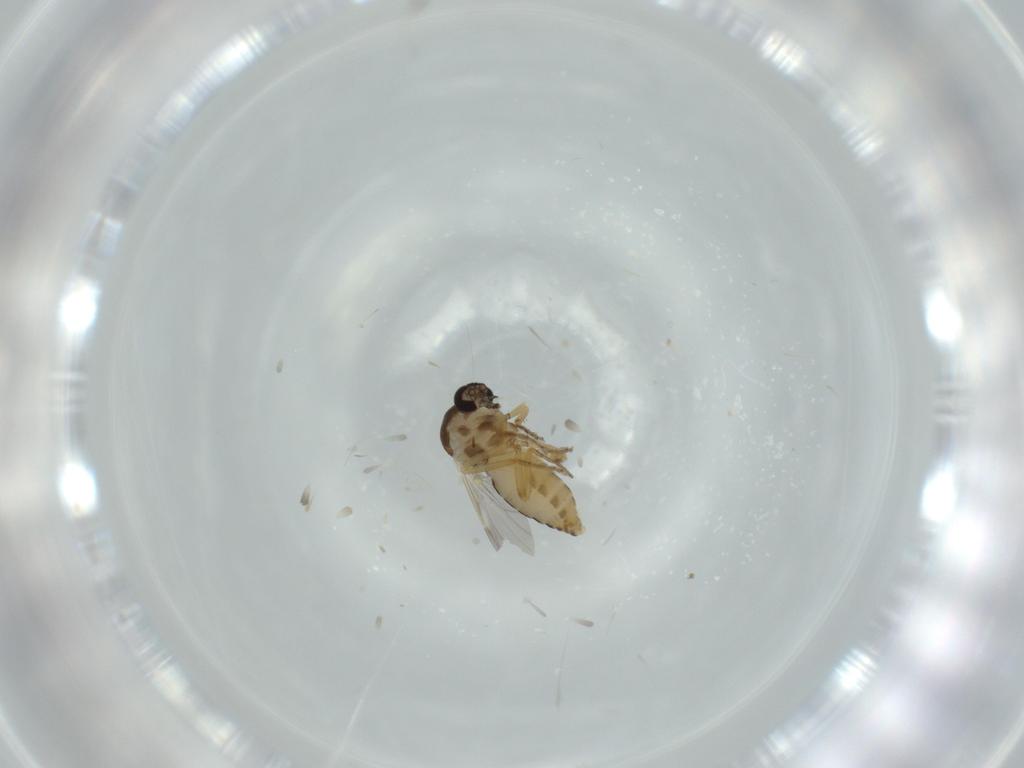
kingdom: Animalia
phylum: Arthropoda
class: Insecta
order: Diptera
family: Ceratopogonidae
